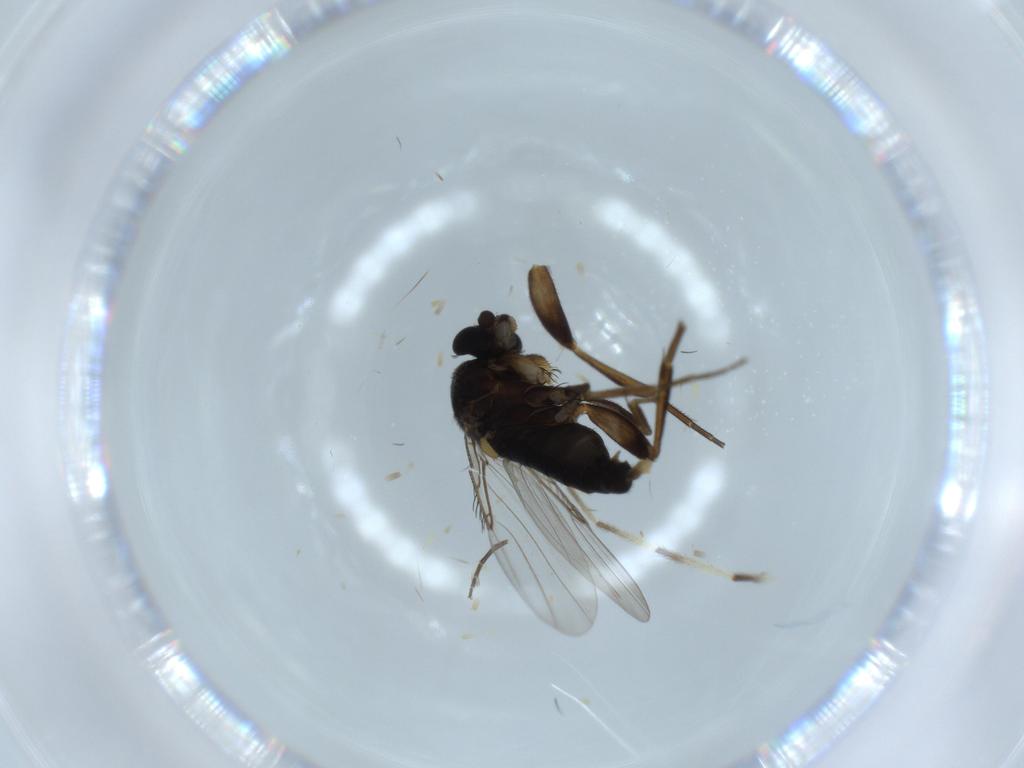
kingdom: Animalia
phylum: Arthropoda
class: Insecta
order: Diptera
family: Phoridae
